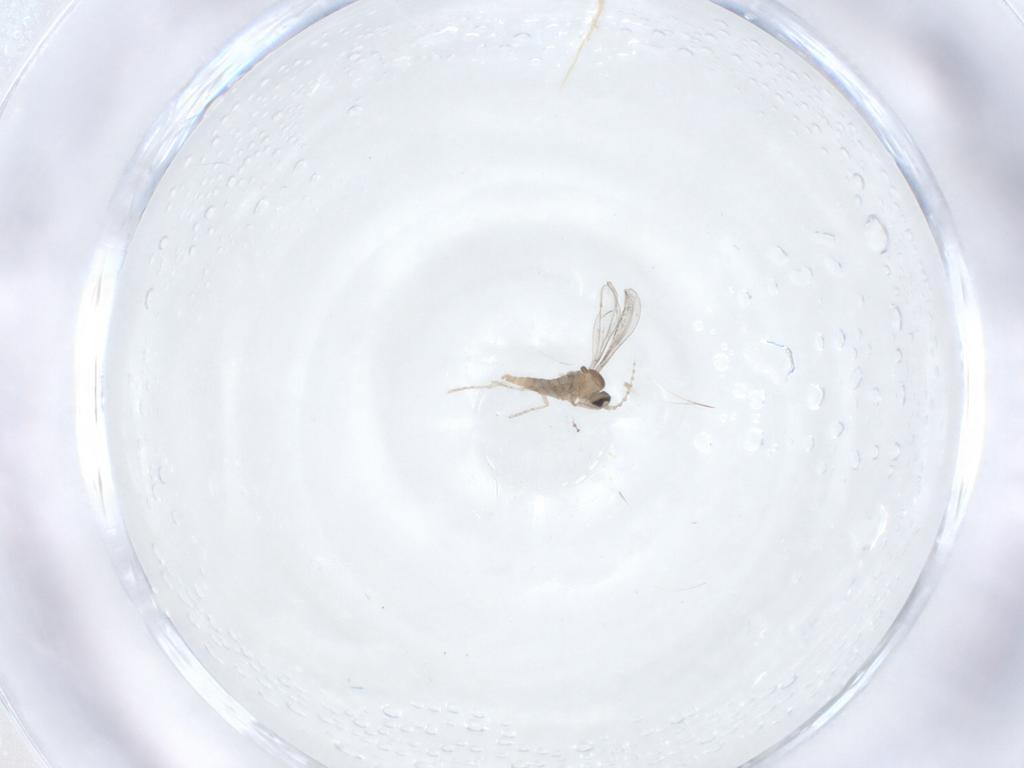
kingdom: Animalia
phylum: Arthropoda
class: Insecta
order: Diptera
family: Cecidomyiidae
